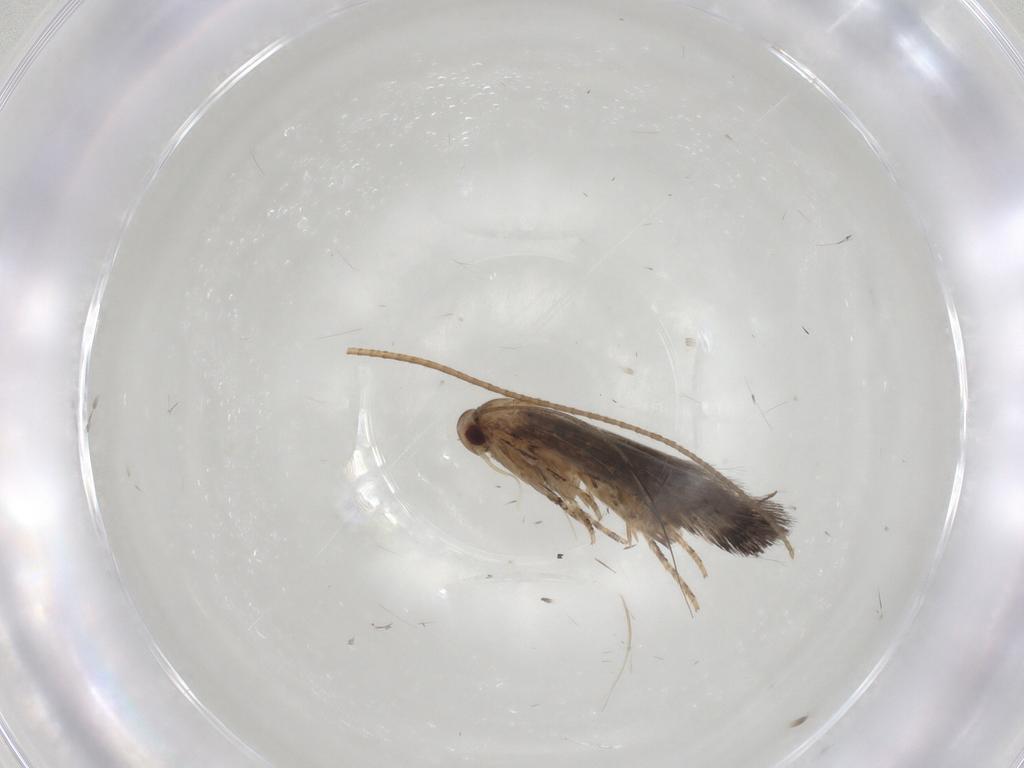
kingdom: Animalia
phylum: Arthropoda
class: Insecta
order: Lepidoptera
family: Elachistidae
